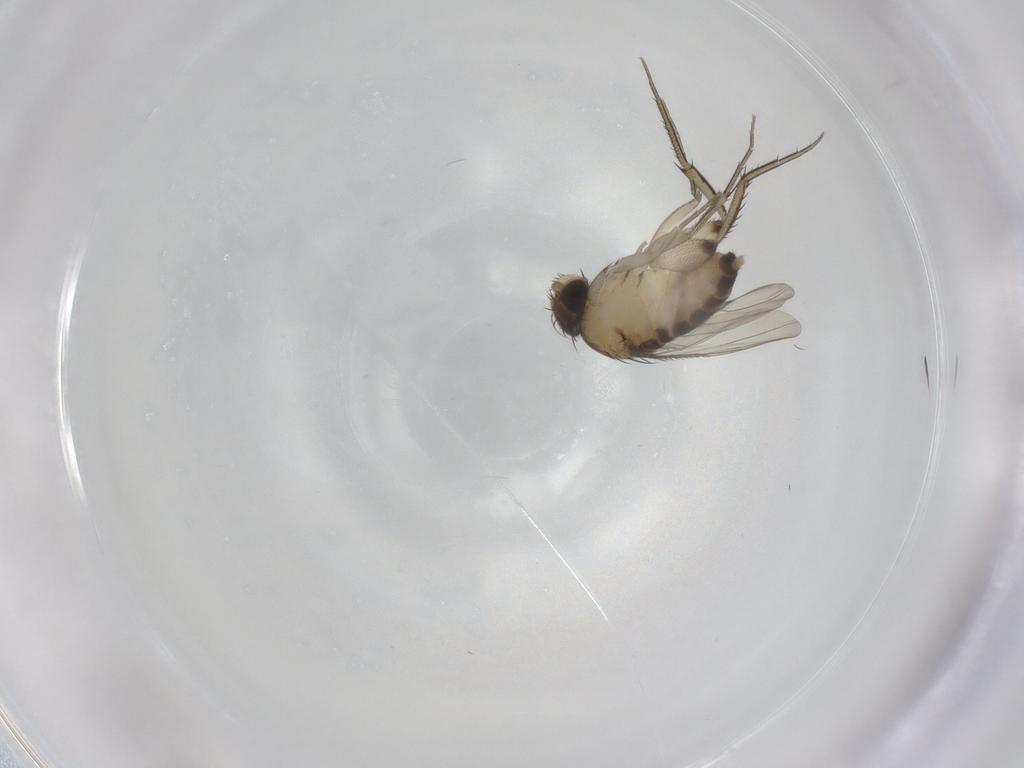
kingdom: Animalia
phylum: Arthropoda
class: Insecta
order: Diptera
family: Phoridae
